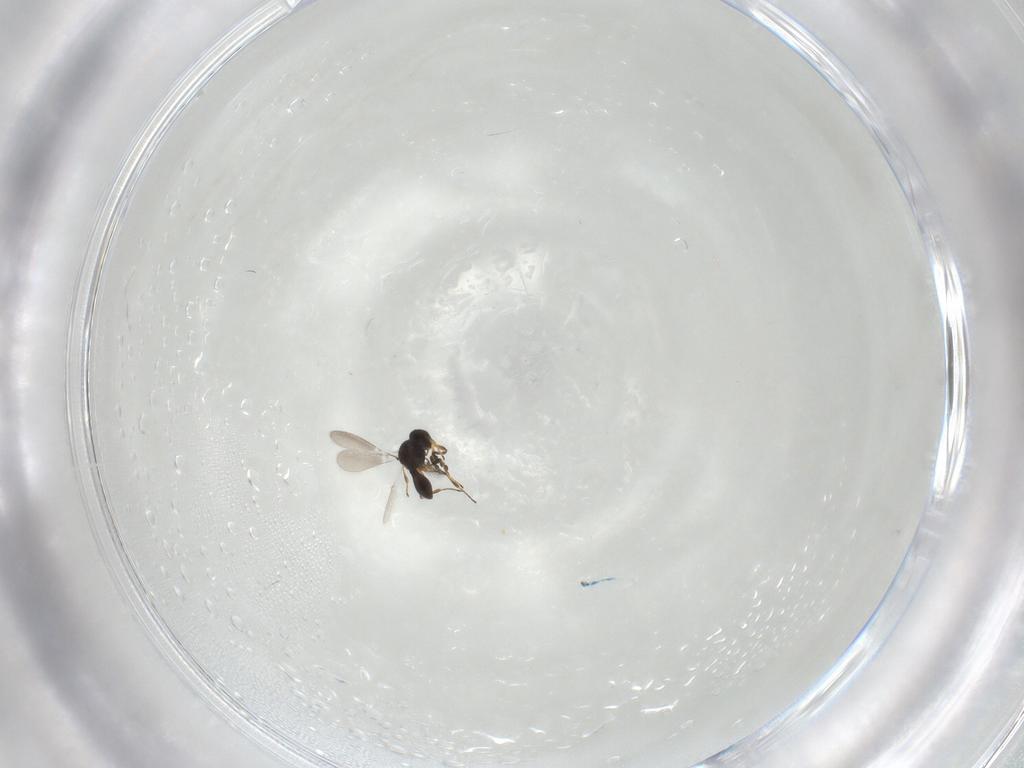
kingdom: Animalia
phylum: Arthropoda
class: Insecta
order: Hymenoptera
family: Platygastridae
